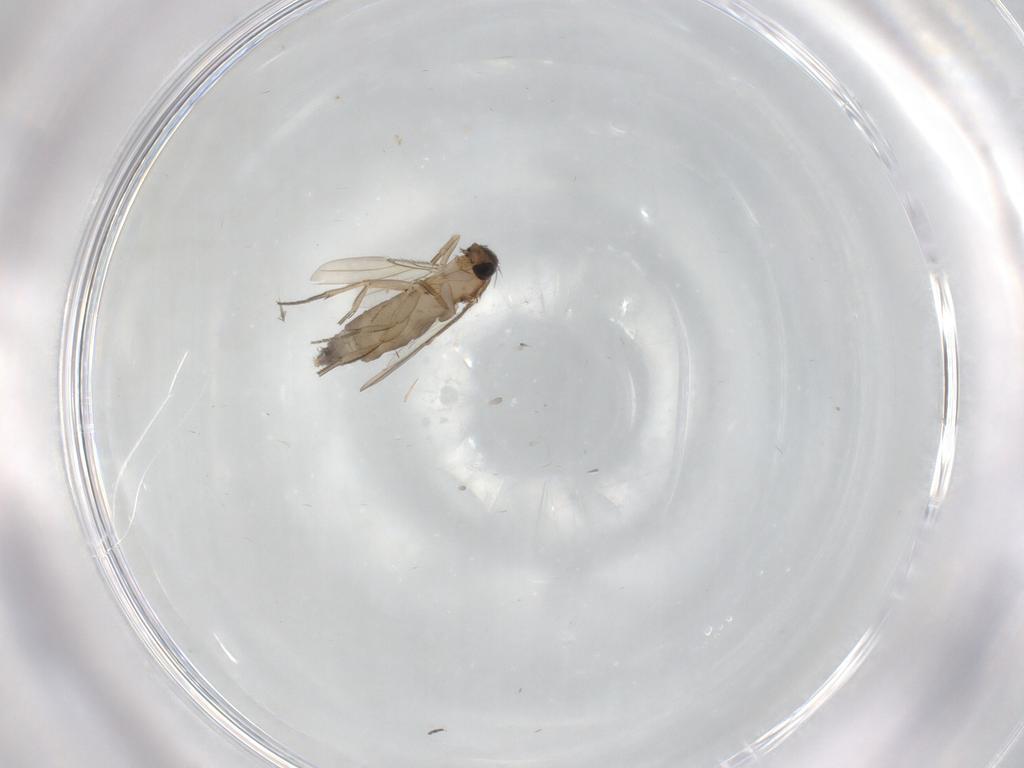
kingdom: Animalia
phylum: Arthropoda
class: Insecta
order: Diptera
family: Phoridae
